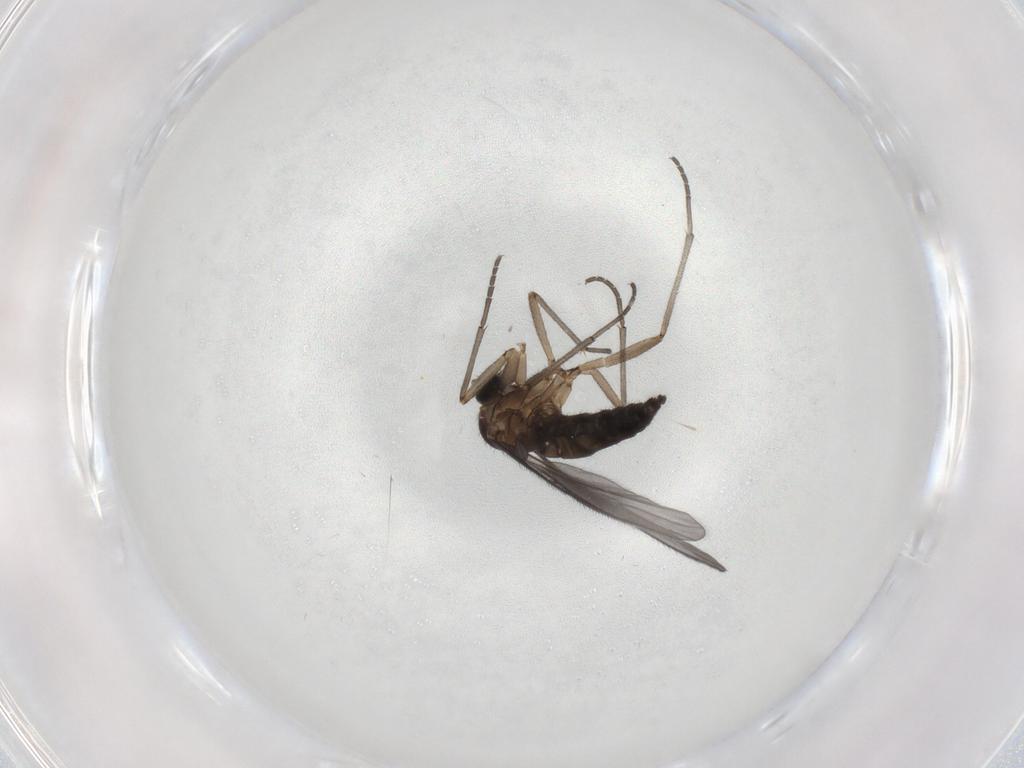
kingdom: Animalia
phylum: Arthropoda
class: Insecta
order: Diptera
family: Sciaridae
